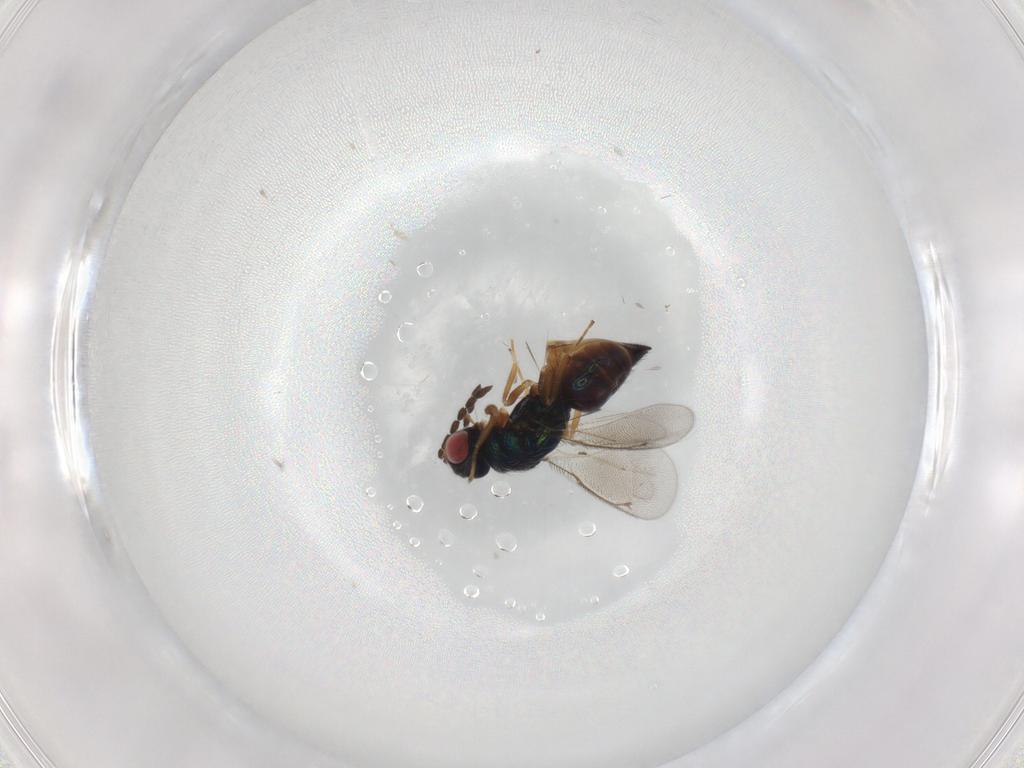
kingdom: Animalia
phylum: Arthropoda
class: Insecta
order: Hymenoptera
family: Eulophidae
